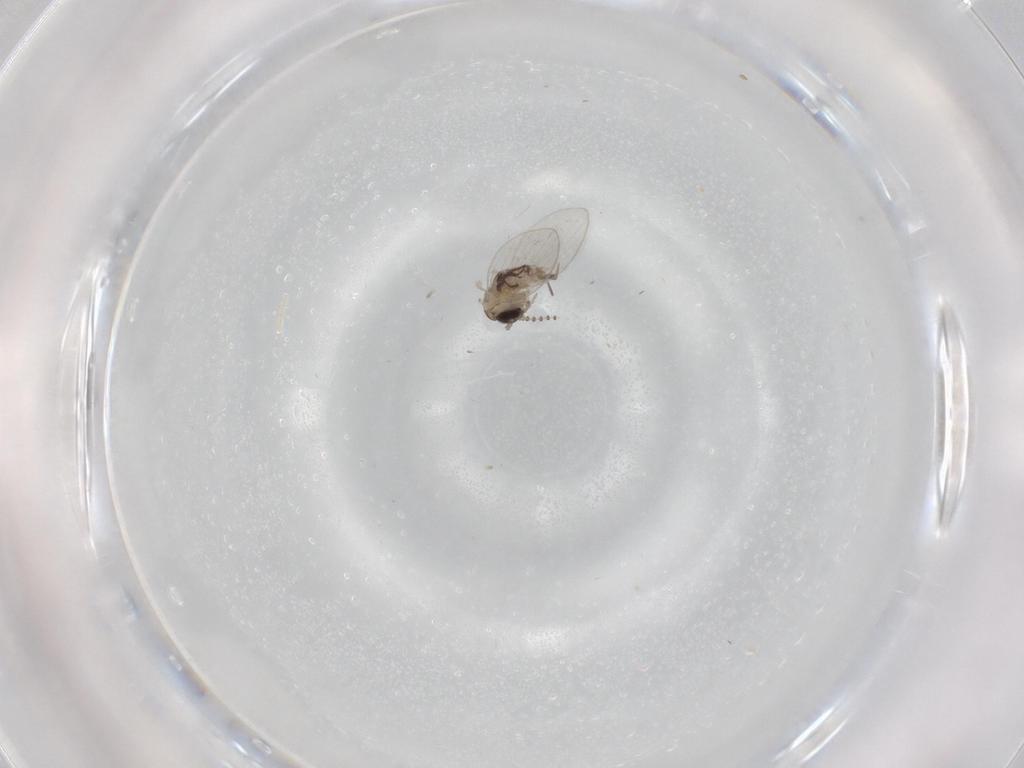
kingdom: Animalia
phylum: Arthropoda
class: Insecta
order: Diptera
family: Psychodidae
